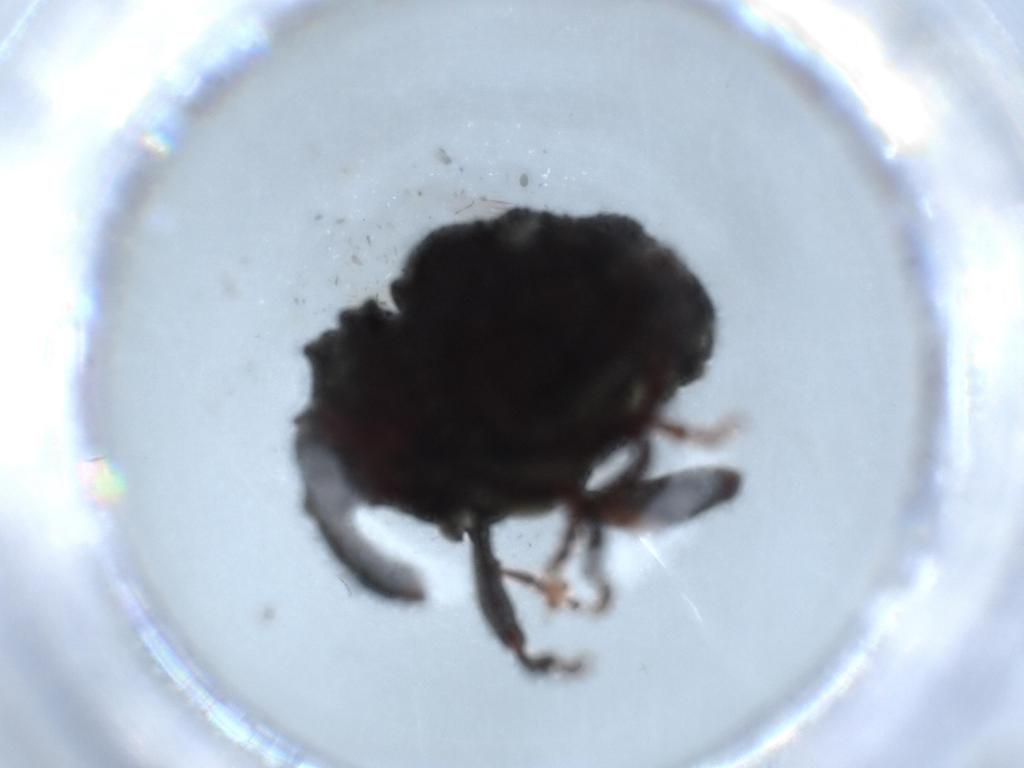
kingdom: Animalia
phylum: Arthropoda
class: Insecta
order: Coleoptera
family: Curculionidae
